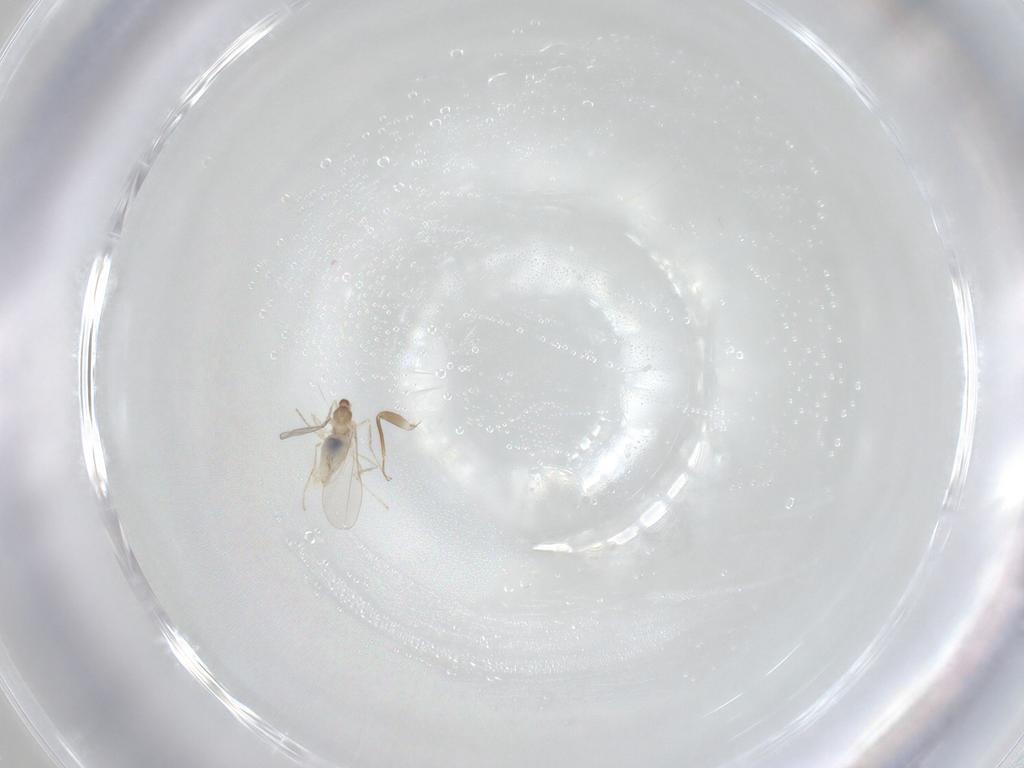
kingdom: Animalia
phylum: Arthropoda
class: Insecta
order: Diptera
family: Cecidomyiidae
